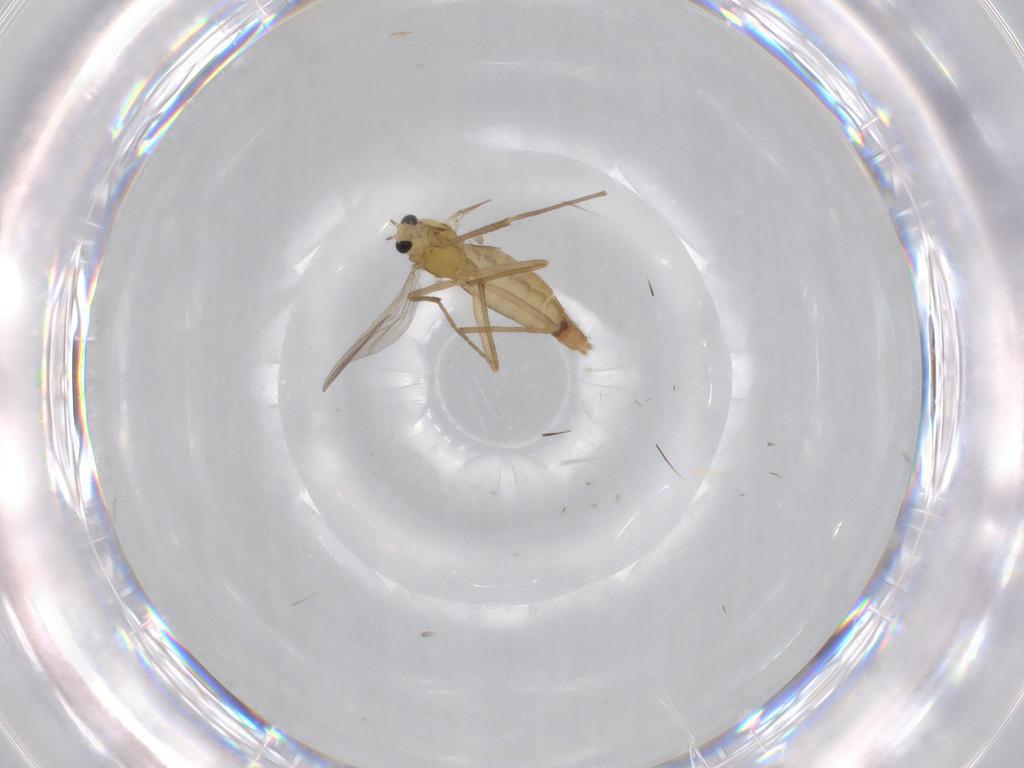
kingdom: Animalia
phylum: Arthropoda
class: Insecta
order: Diptera
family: Chironomidae
